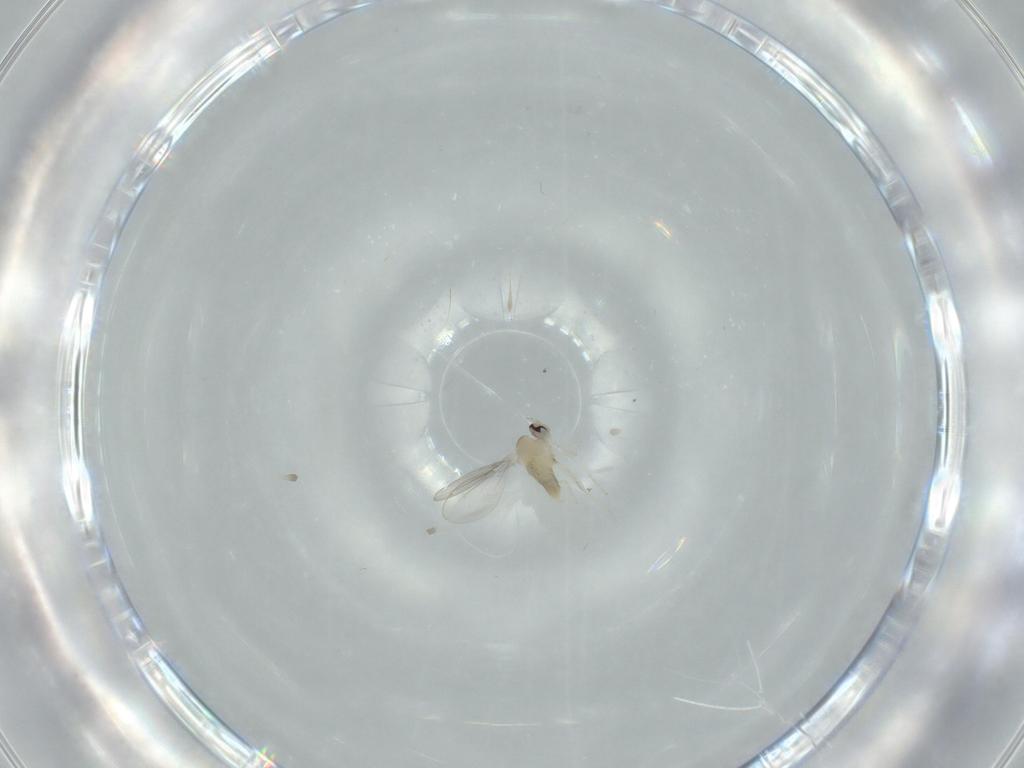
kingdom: Animalia
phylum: Arthropoda
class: Insecta
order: Diptera
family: Cecidomyiidae
